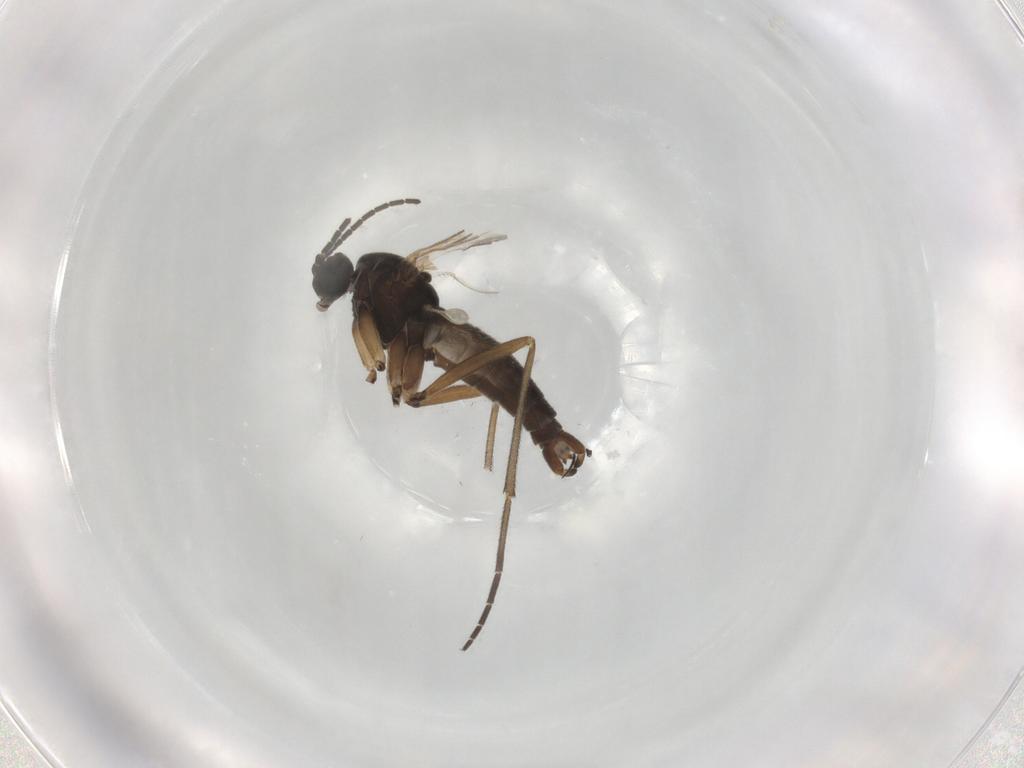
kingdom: Animalia
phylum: Arthropoda
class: Insecta
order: Diptera
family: Sciaridae
